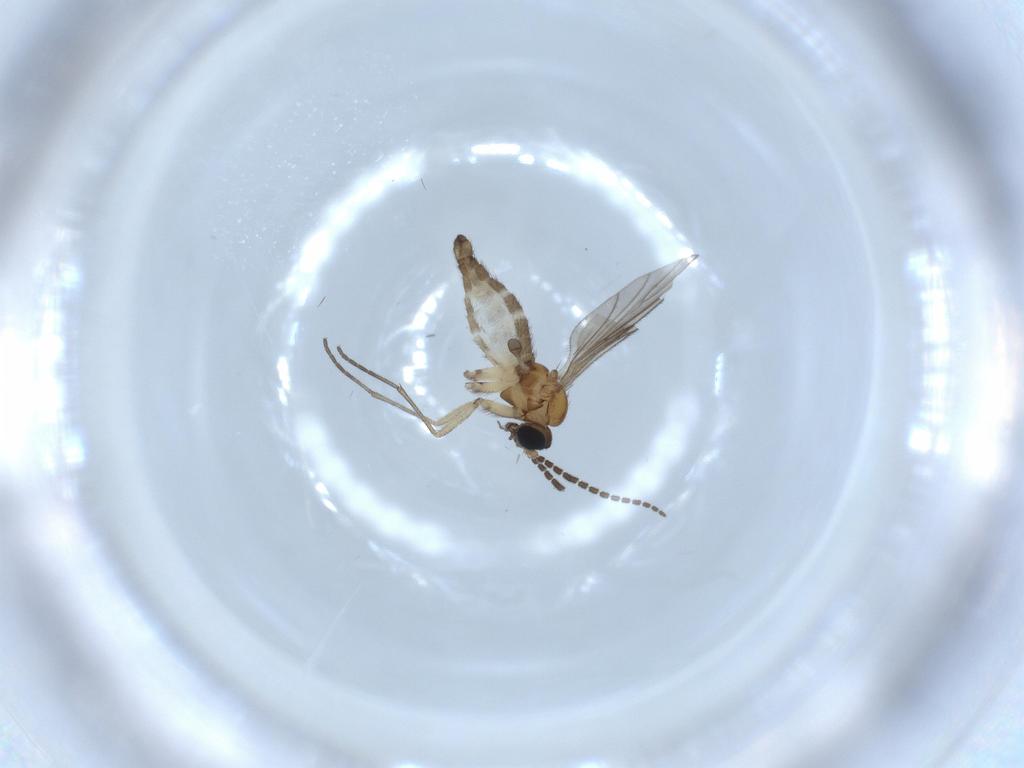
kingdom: Animalia
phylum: Arthropoda
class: Insecta
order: Diptera
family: Sciaridae
